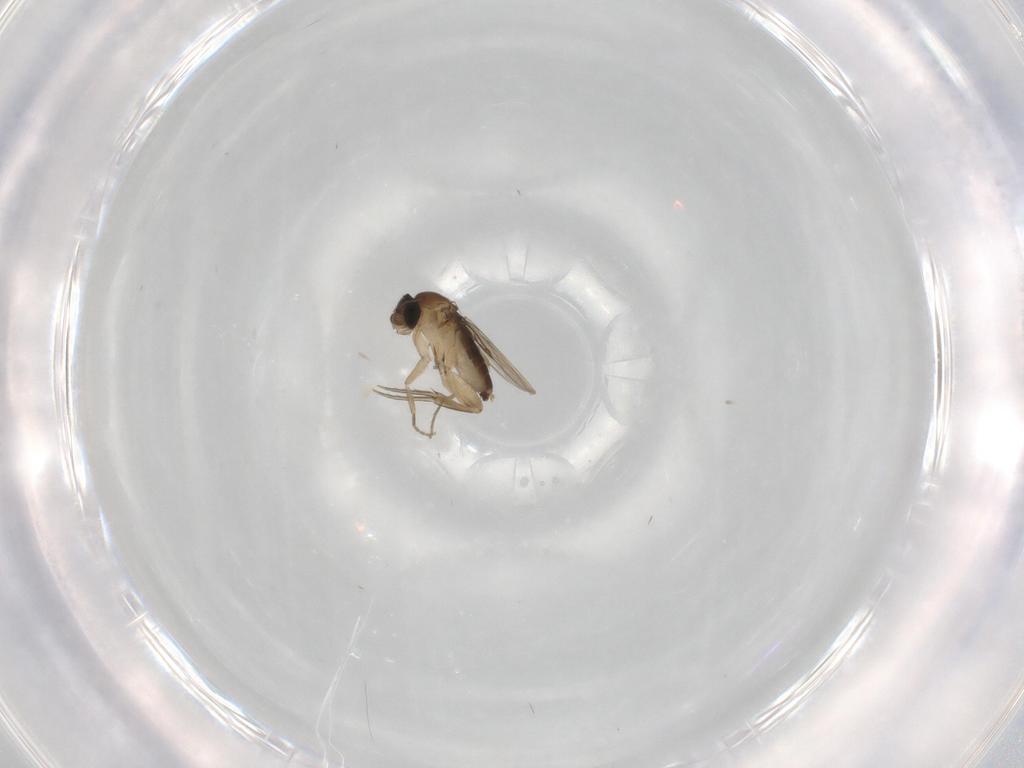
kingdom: Animalia
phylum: Arthropoda
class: Insecta
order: Diptera
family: Phoridae
